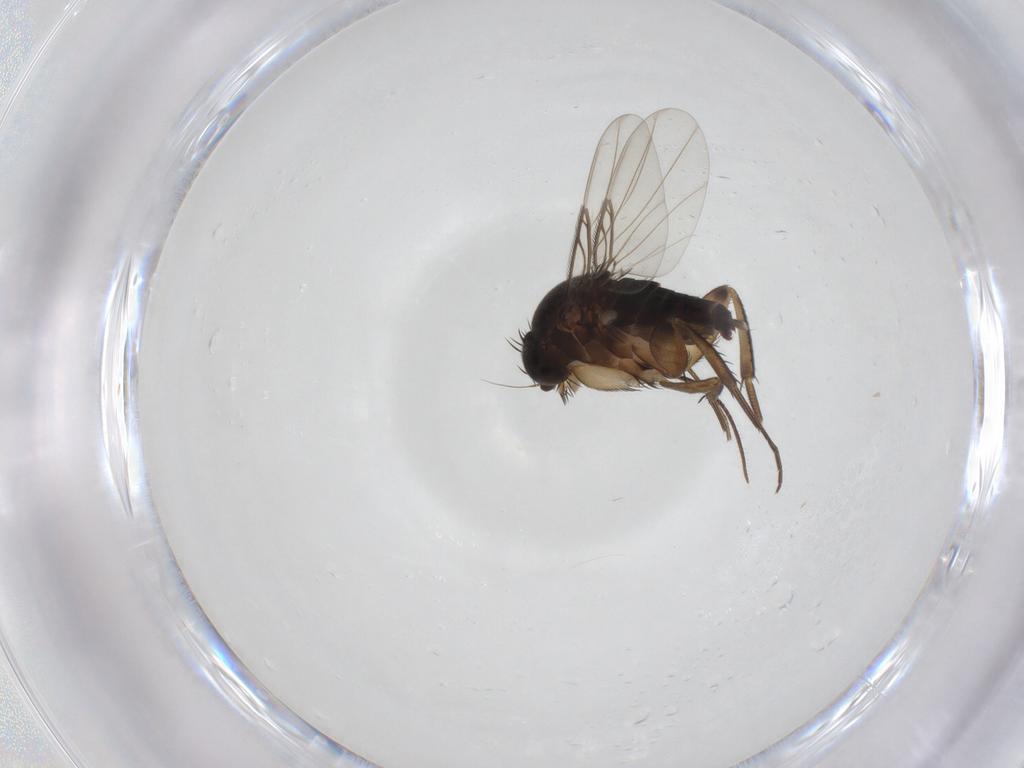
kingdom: Animalia
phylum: Arthropoda
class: Insecta
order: Diptera
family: Phoridae
